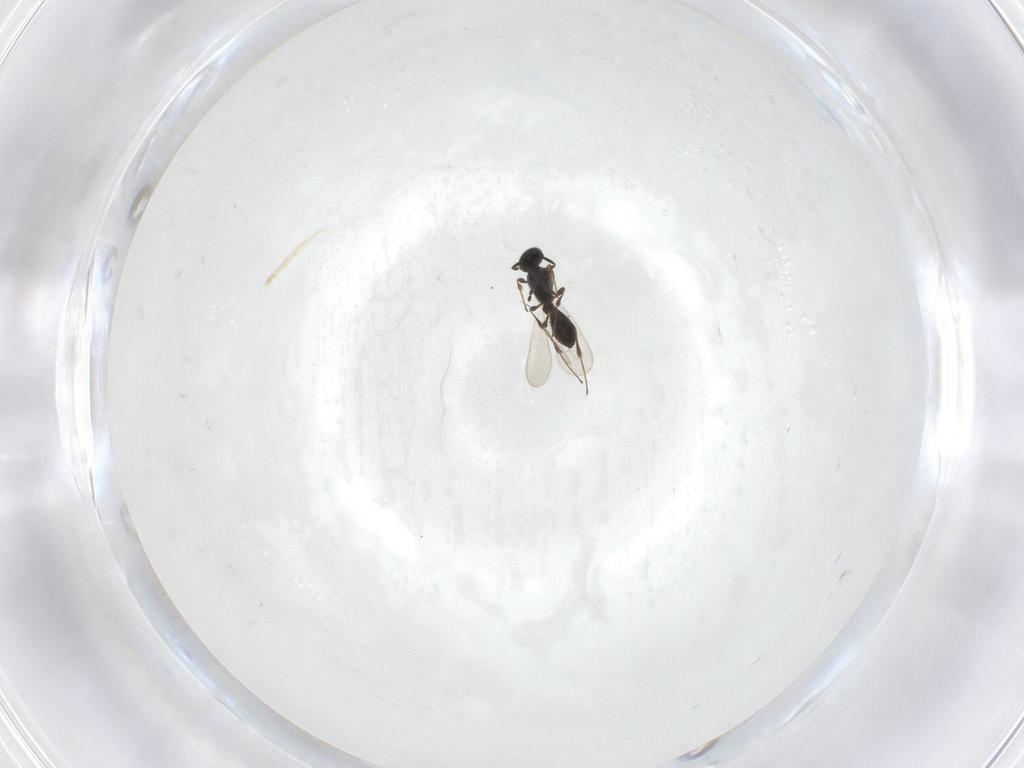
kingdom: Animalia
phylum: Arthropoda
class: Insecta
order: Hymenoptera
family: Platygastridae
